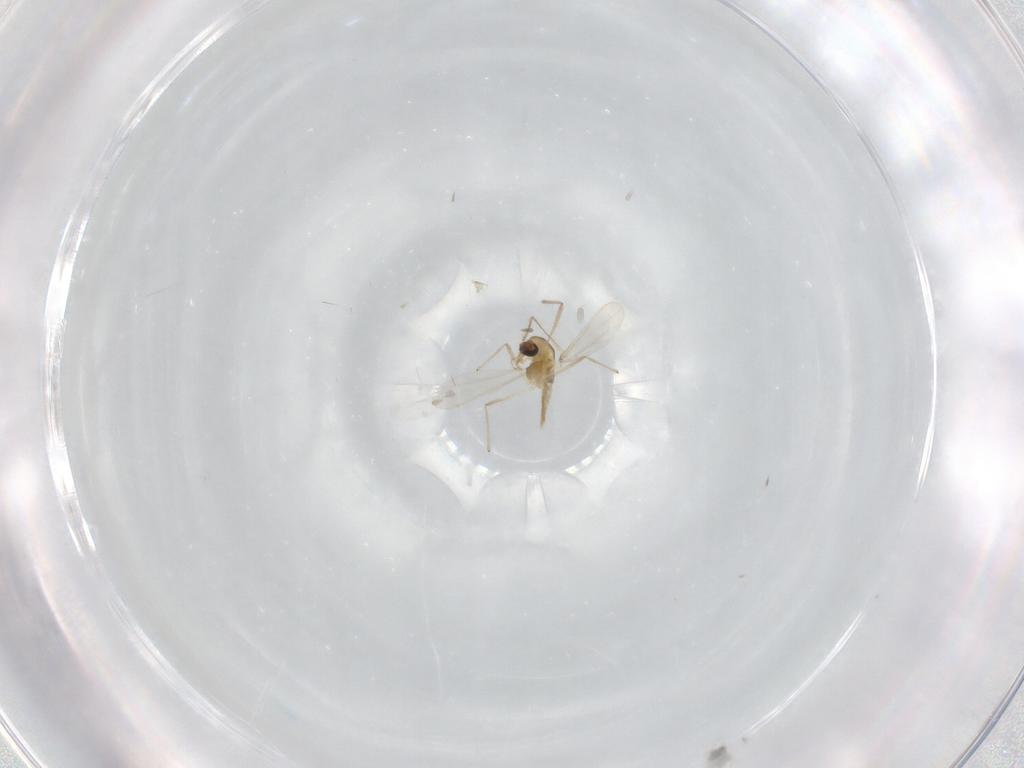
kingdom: Animalia
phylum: Arthropoda
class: Insecta
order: Diptera
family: Chironomidae
